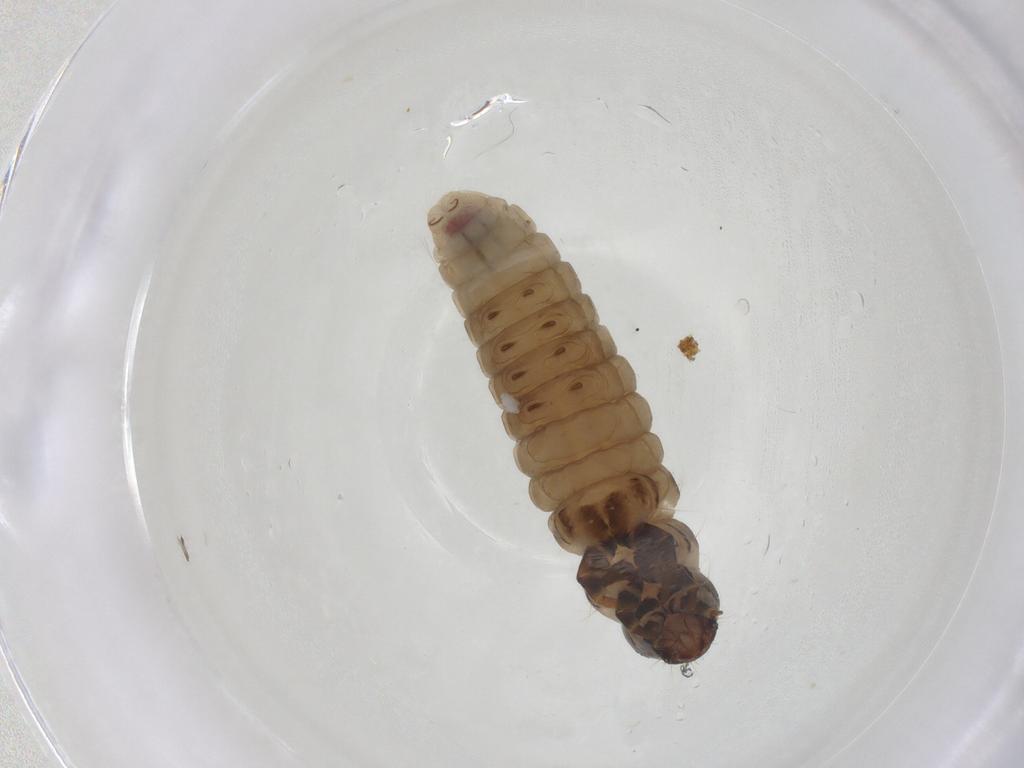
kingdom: Animalia
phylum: Arthropoda
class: Insecta
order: Lepidoptera
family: Psychidae
